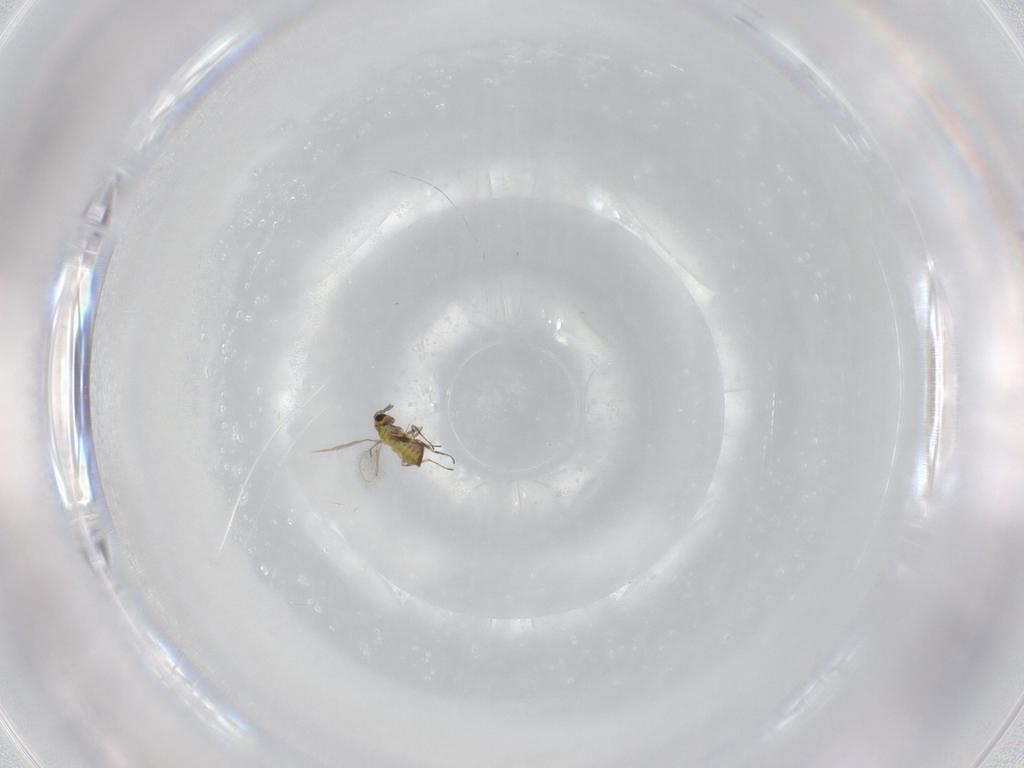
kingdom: Animalia
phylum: Arthropoda
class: Insecta
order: Hymenoptera
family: Trichogrammatidae
